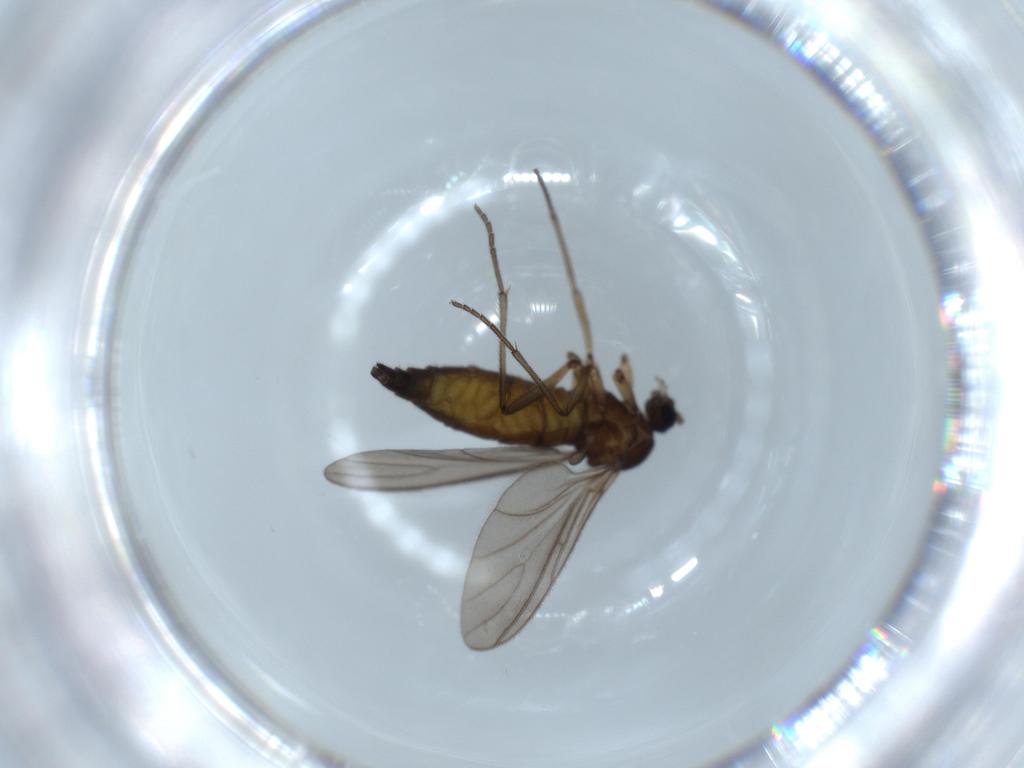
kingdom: Animalia
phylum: Arthropoda
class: Insecta
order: Diptera
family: Sciaridae
